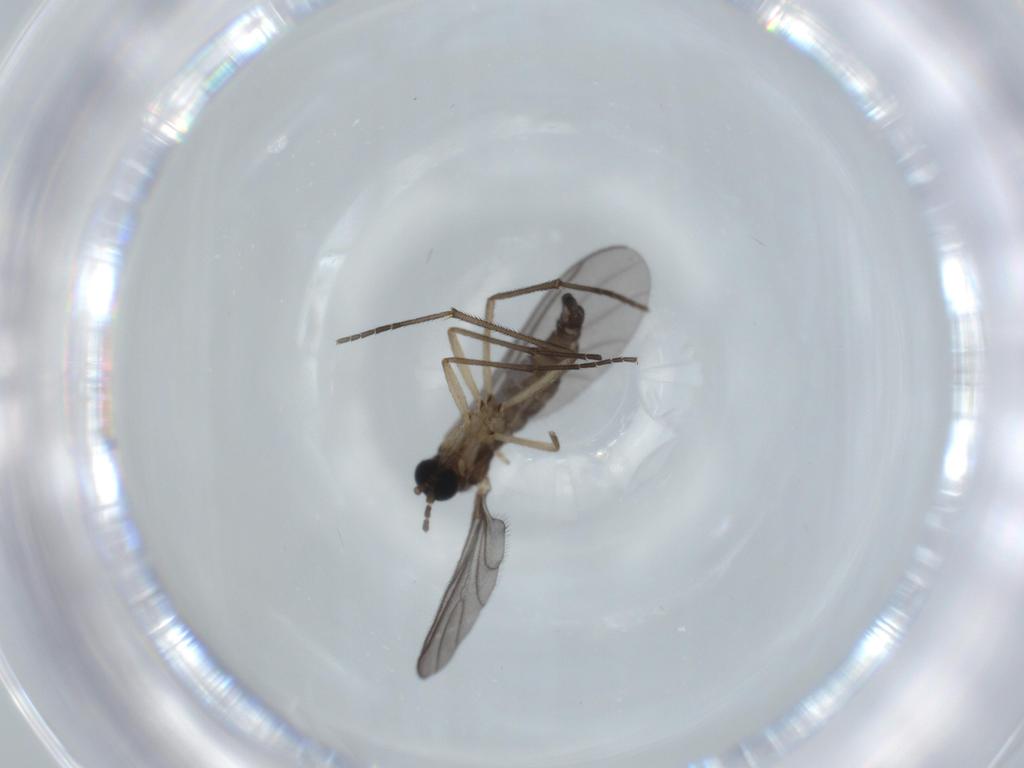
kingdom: Animalia
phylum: Arthropoda
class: Insecta
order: Diptera
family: Sciaridae
